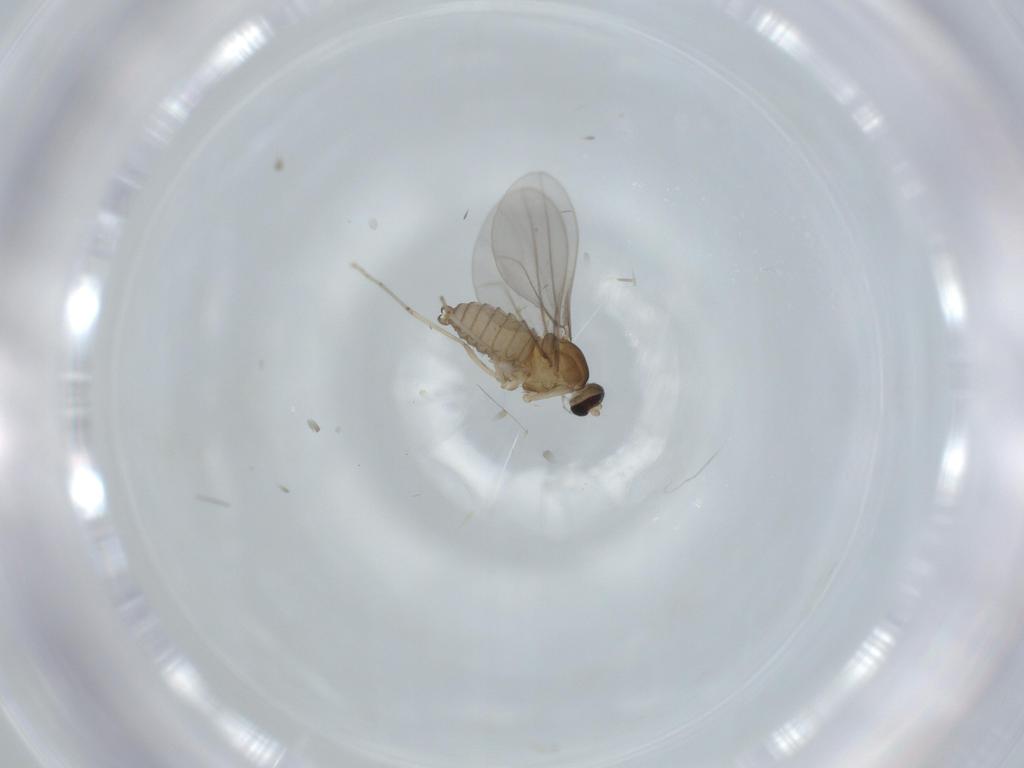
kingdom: Animalia
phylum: Arthropoda
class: Insecta
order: Diptera
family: Cecidomyiidae
